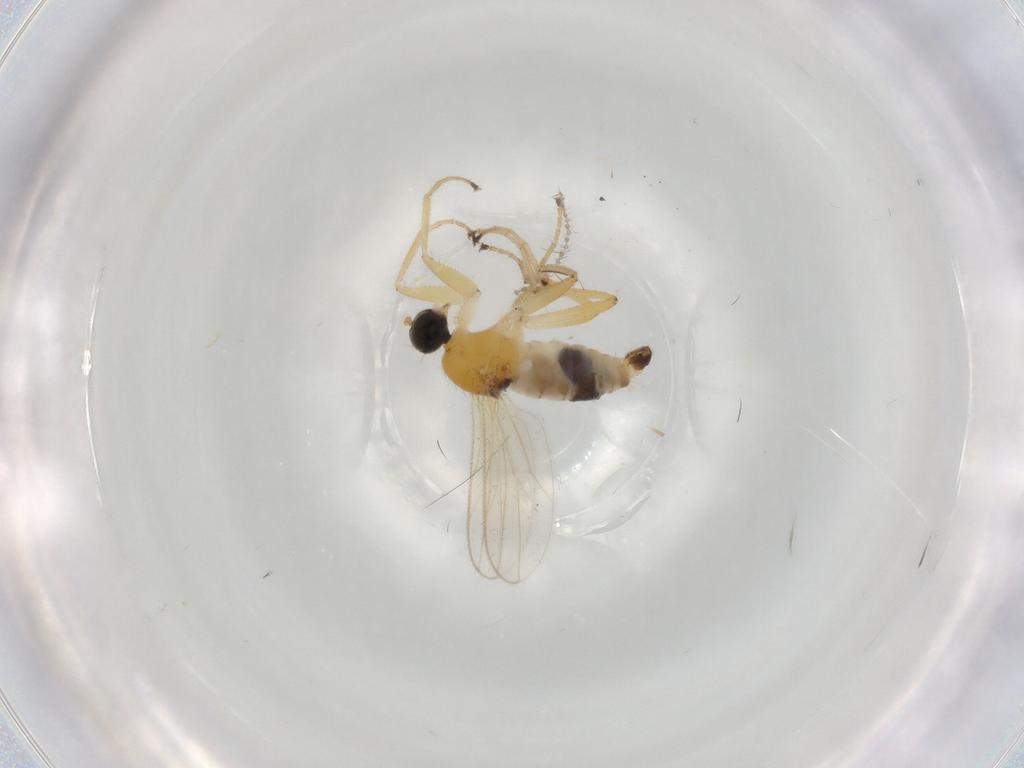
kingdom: Animalia
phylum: Arthropoda
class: Insecta
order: Diptera
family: Hybotidae
